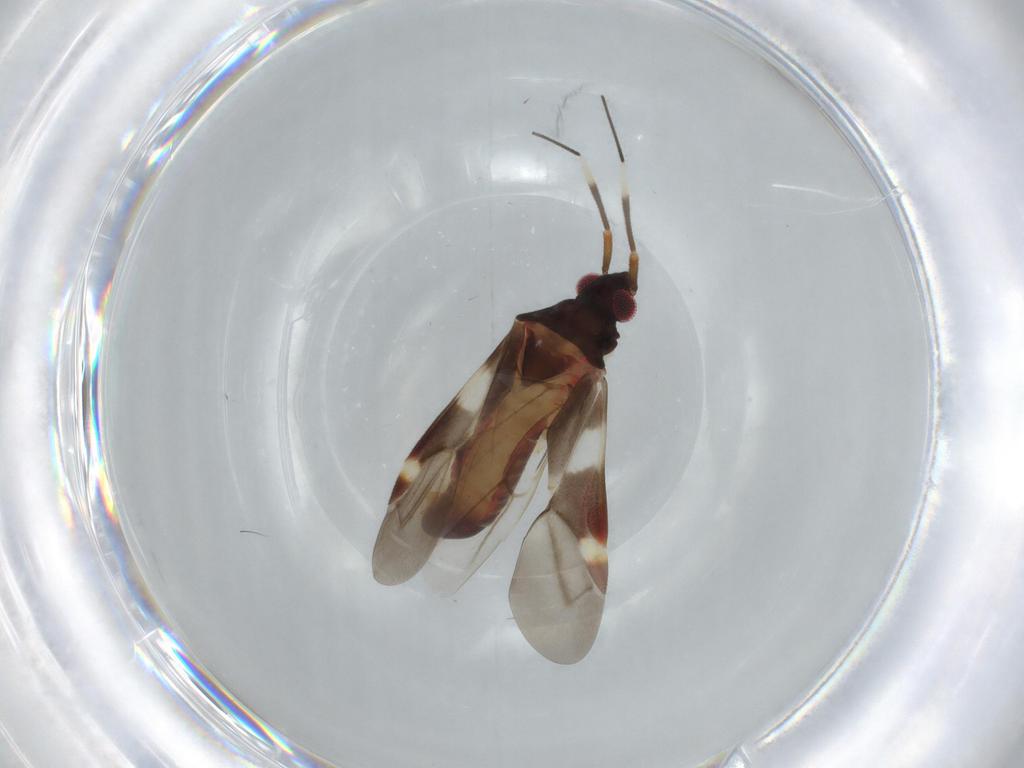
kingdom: Animalia
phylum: Arthropoda
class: Insecta
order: Hemiptera
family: Miridae
